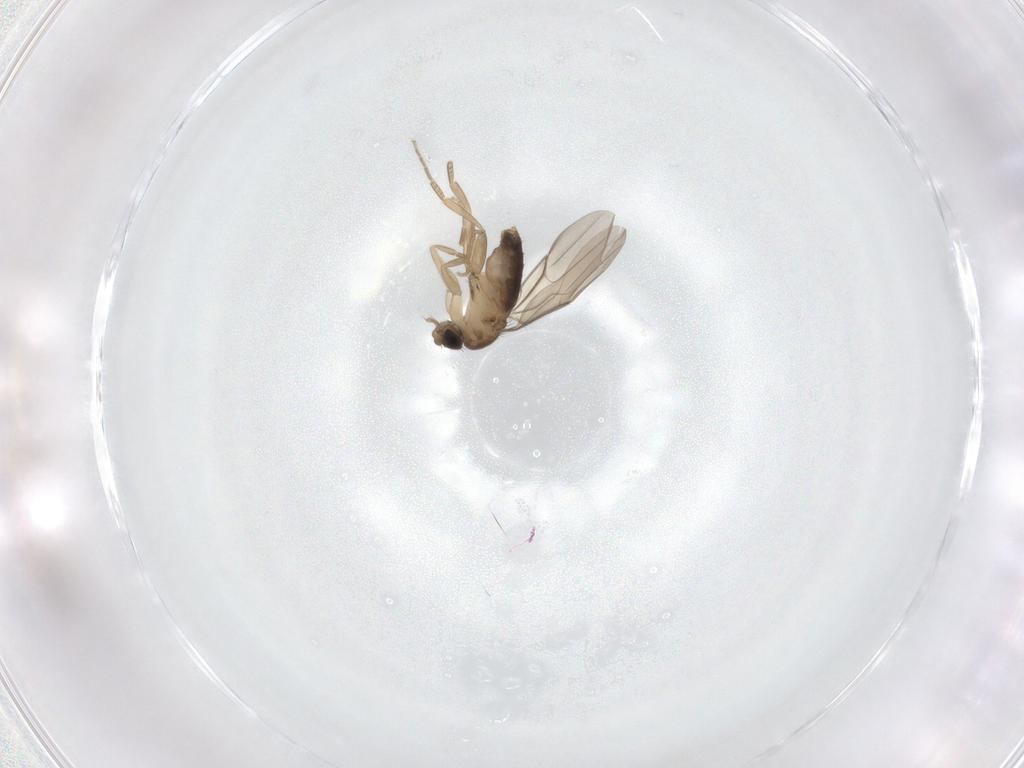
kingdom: Animalia
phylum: Arthropoda
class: Insecta
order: Diptera
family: Phoridae
